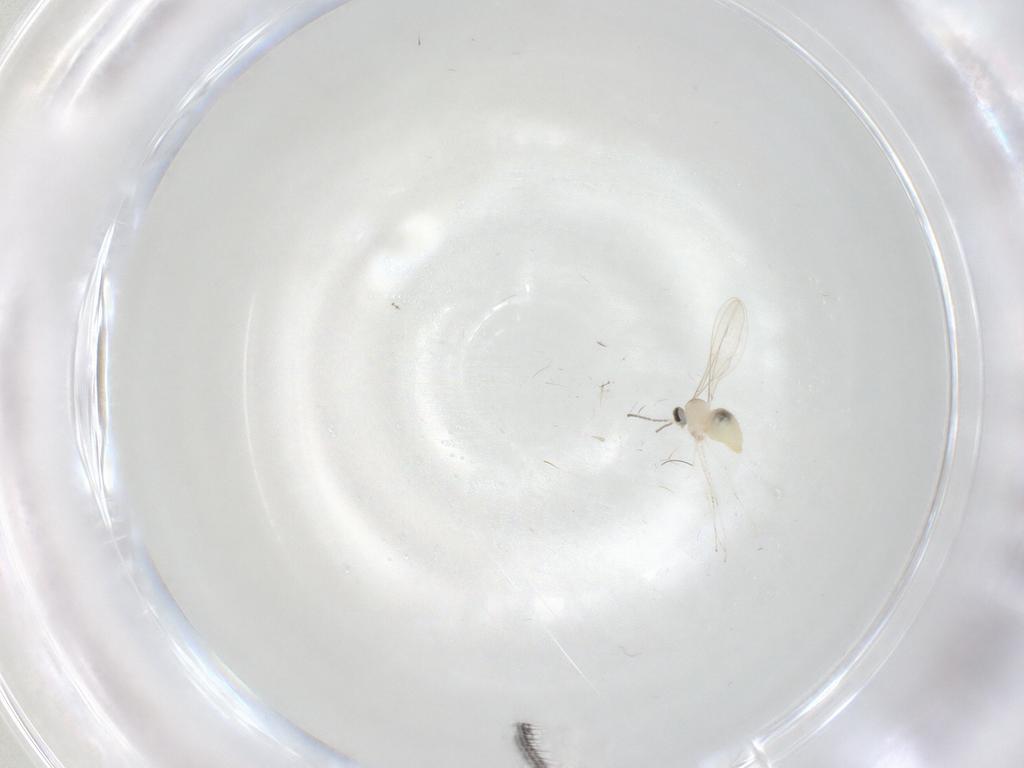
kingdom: Animalia
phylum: Arthropoda
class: Insecta
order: Diptera
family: Cecidomyiidae
